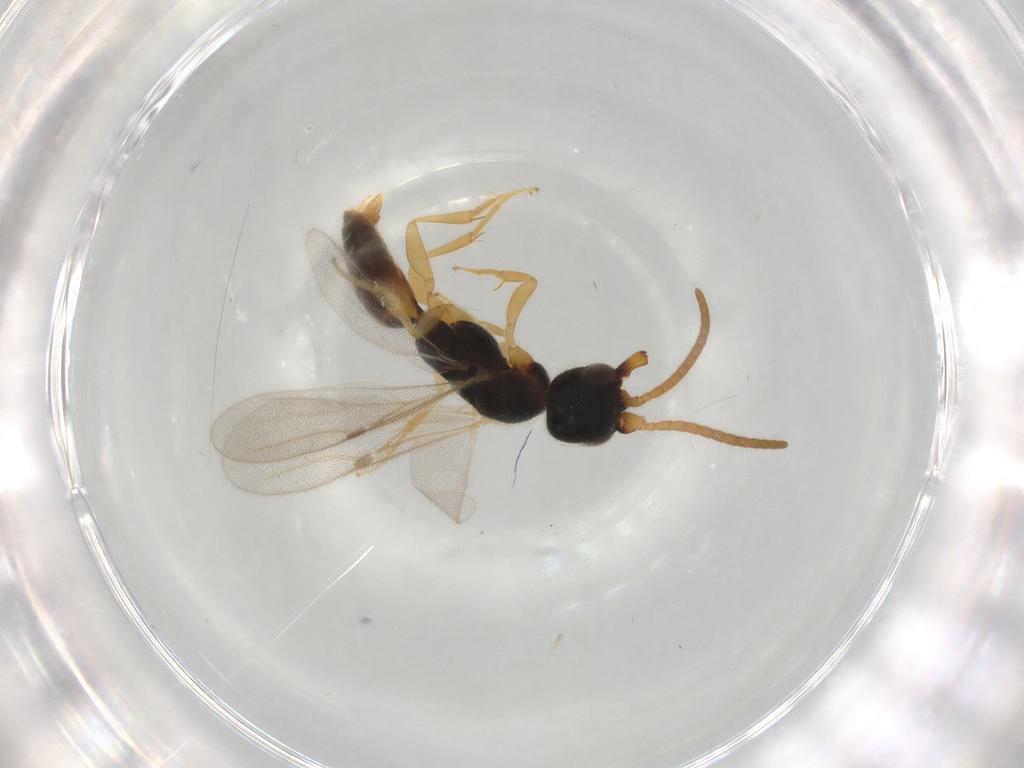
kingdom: Animalia
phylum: Arthropoda
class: Insecta
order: Hymenoptera
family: Bethylidae
